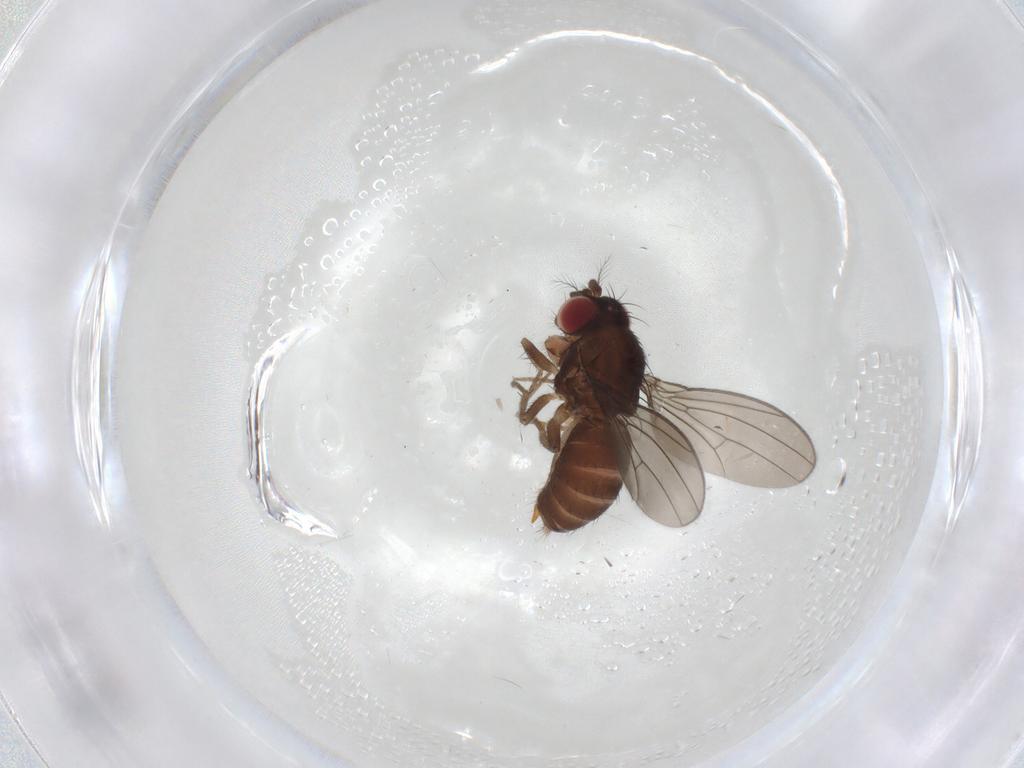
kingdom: Animalia
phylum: Arthropoda
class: Insecta
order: Diptera
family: Drosophilidae
